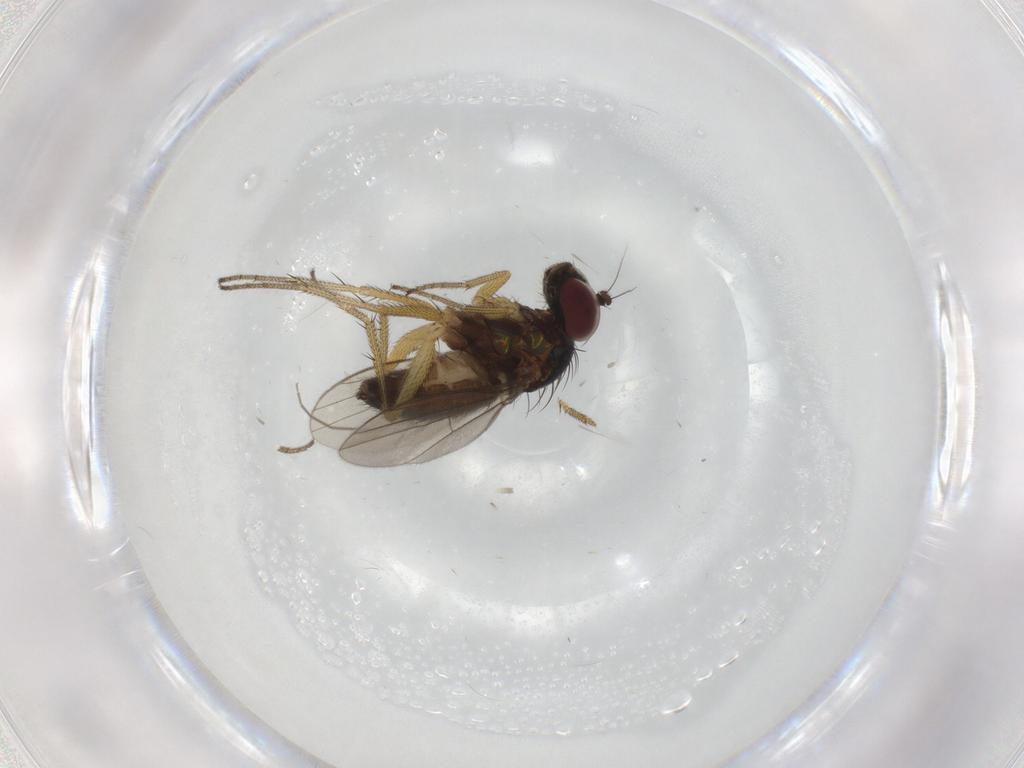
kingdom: Animalia
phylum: Arthropoda
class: Insecta
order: Diptera
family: Dolichopodidae
